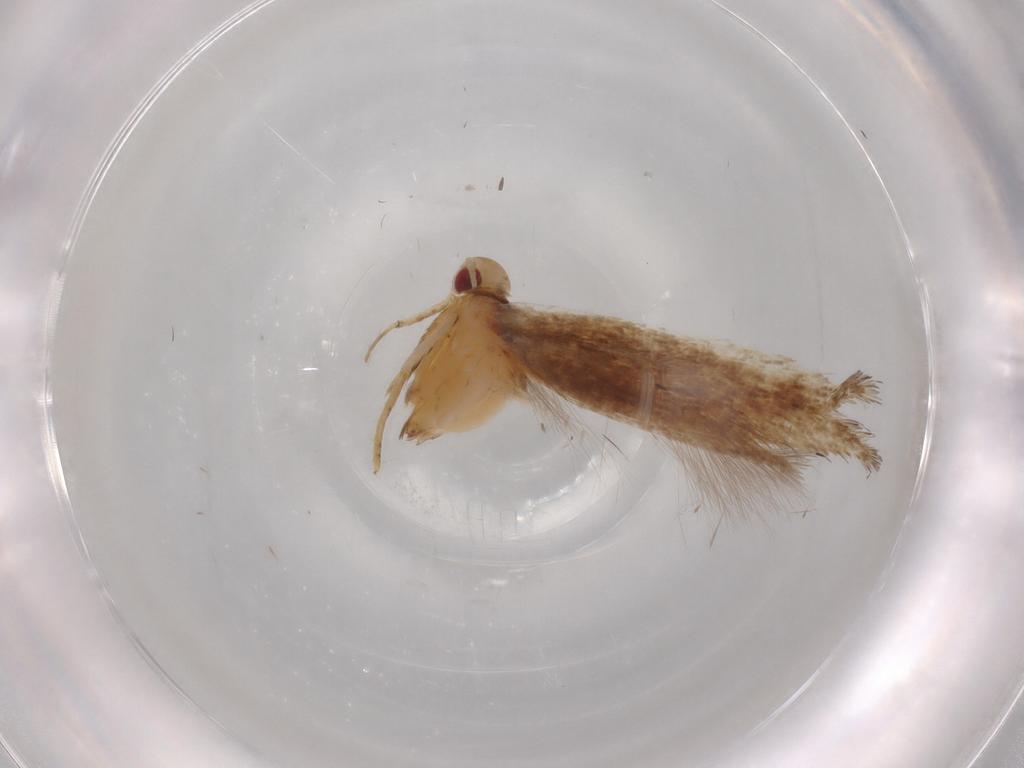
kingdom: Animalia
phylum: Arthropoda
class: Insecta
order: Lepidoptera
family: Cosmopterigidae
